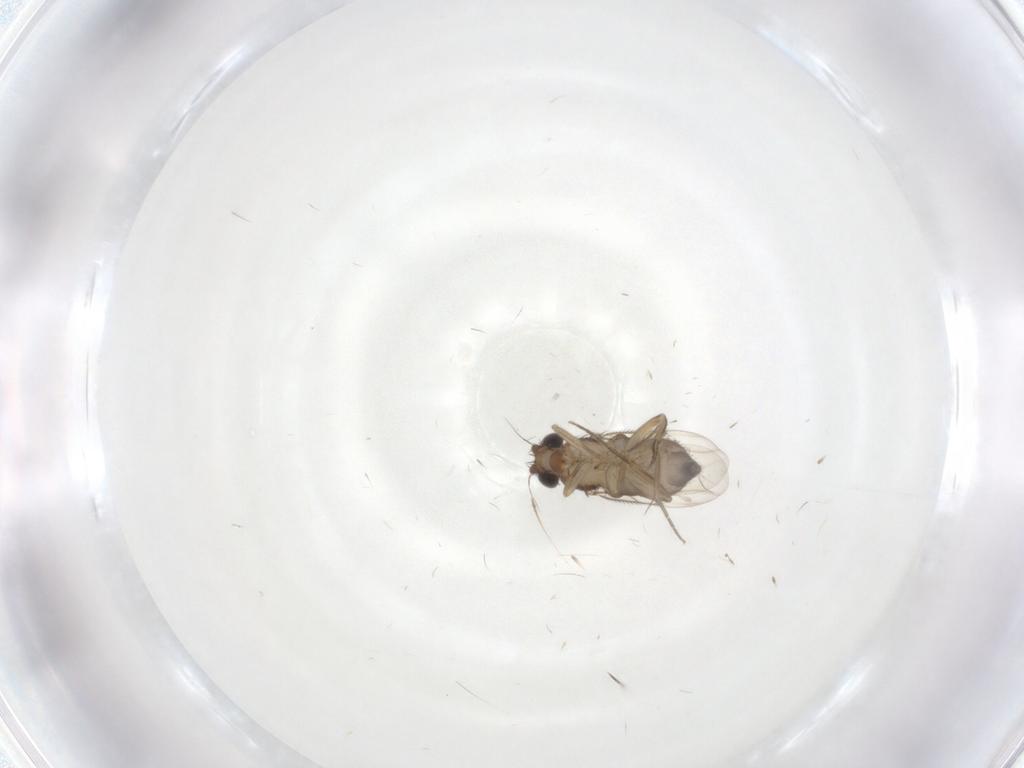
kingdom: Animalia
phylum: Arthropoda
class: Insecta
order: Diptera
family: Phoridae
